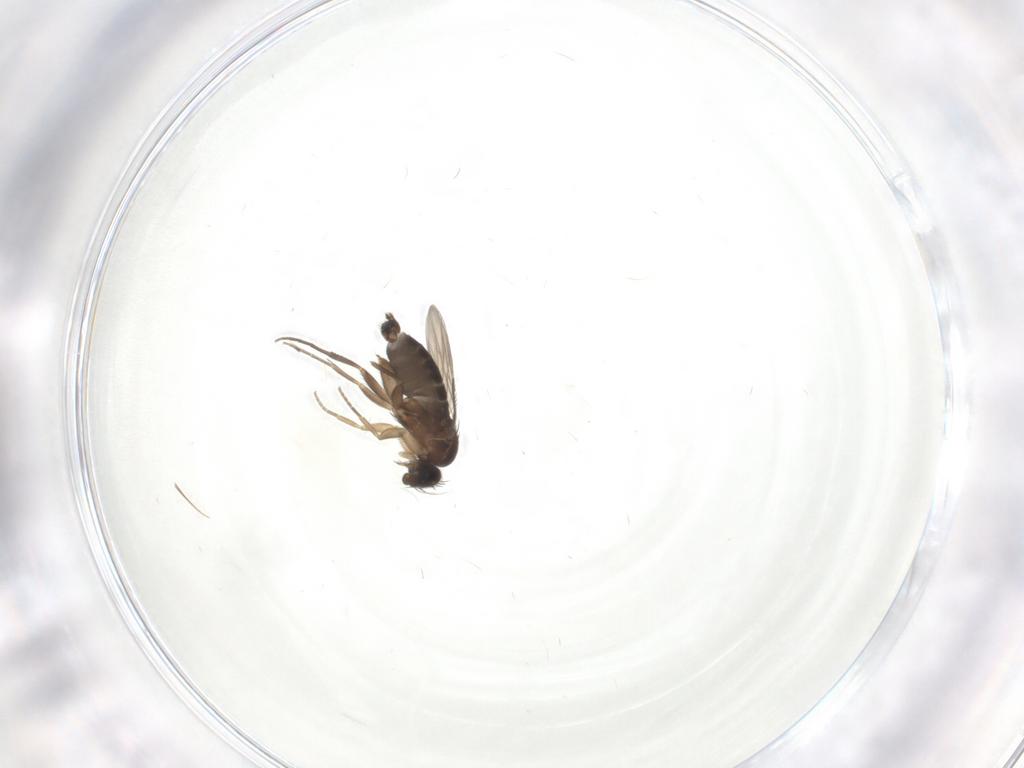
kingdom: Animalia
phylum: Arthropoda
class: Insecta
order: Diptera
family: Phoridae
